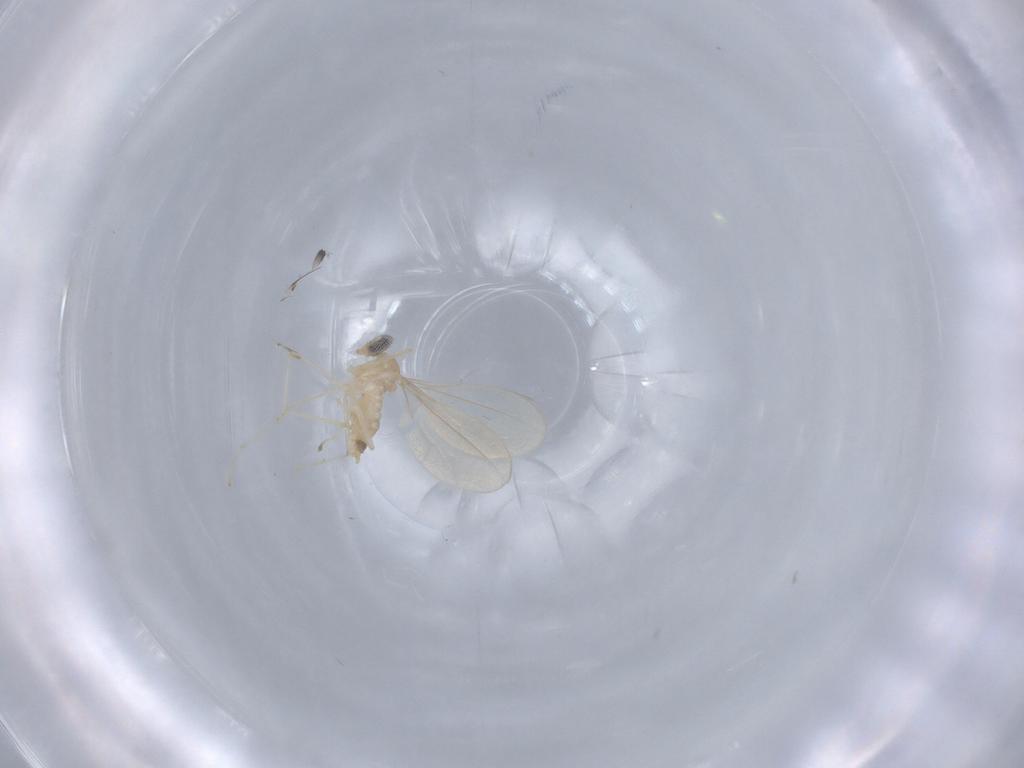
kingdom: Animalia
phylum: Arthropoda
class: Insecta
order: Diptera
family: Cecidomyiidae
